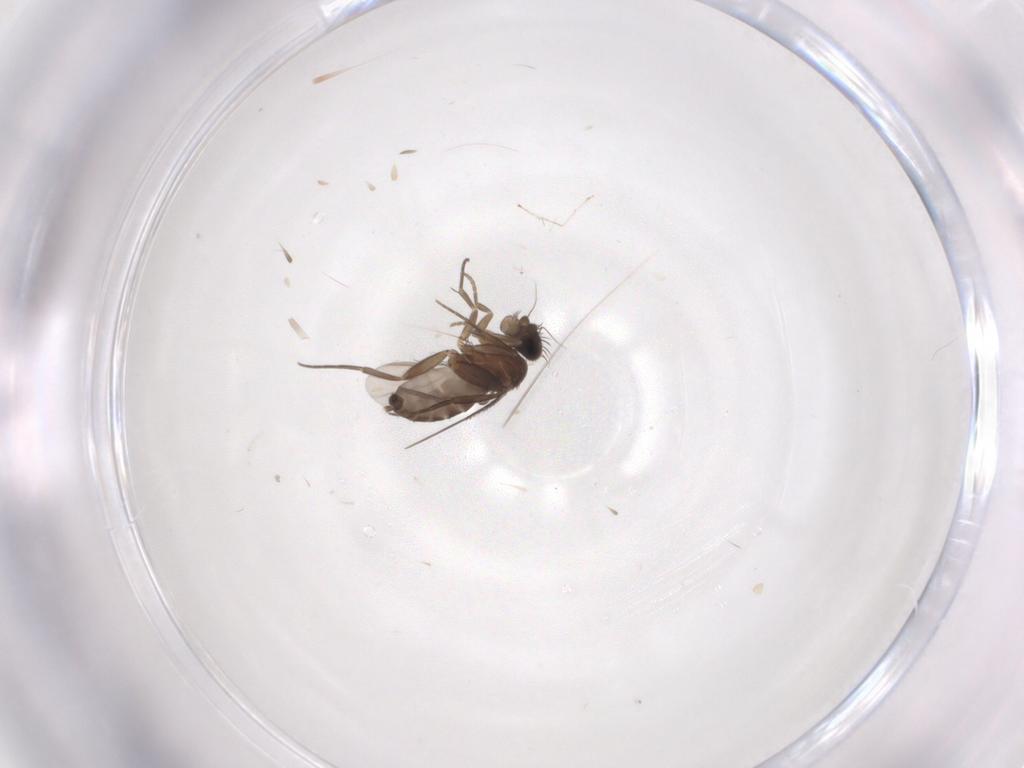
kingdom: Animalia
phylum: Arthropoda
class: Insecta
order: Diptera
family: Phoridae
